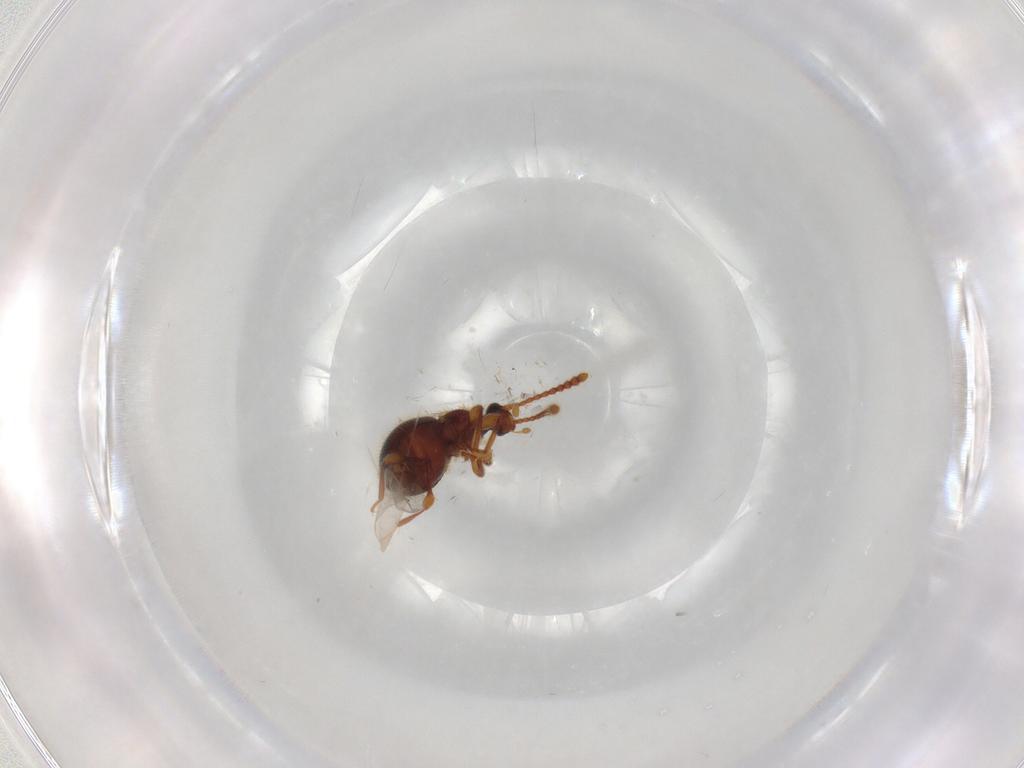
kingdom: Animalia
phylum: Arthropoda
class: Insecta
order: Coleoptera
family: Staphylinidae
